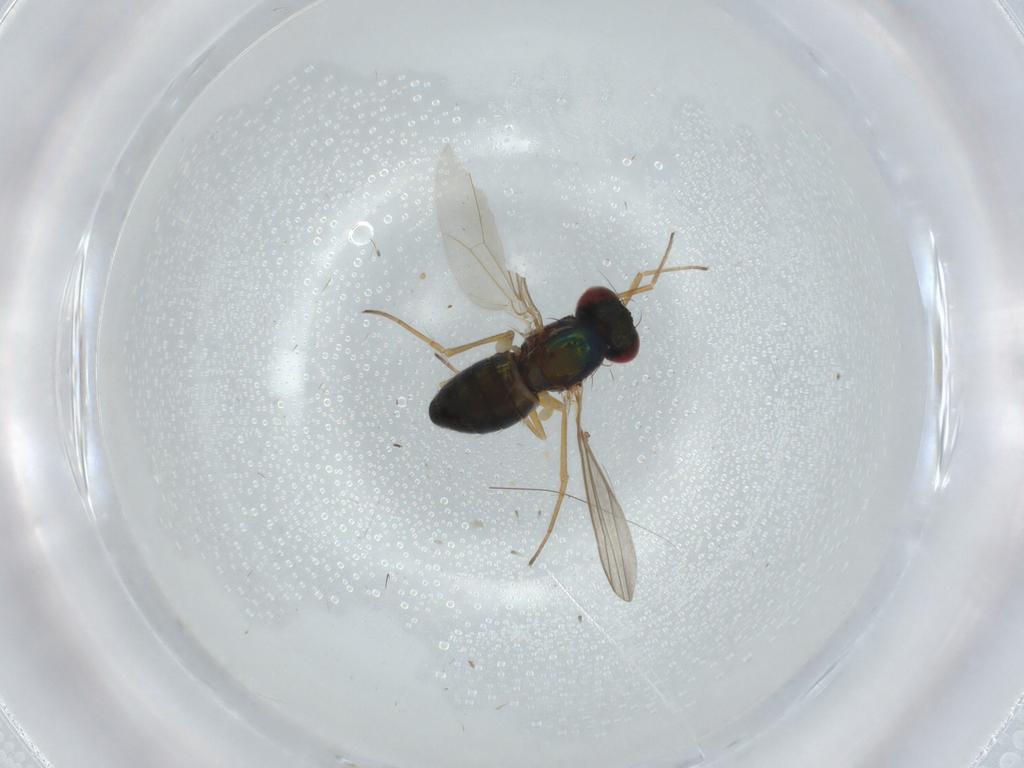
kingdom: Animalia
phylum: Arthropoda
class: Insecta
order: Diptera
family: Dolichopodidae
